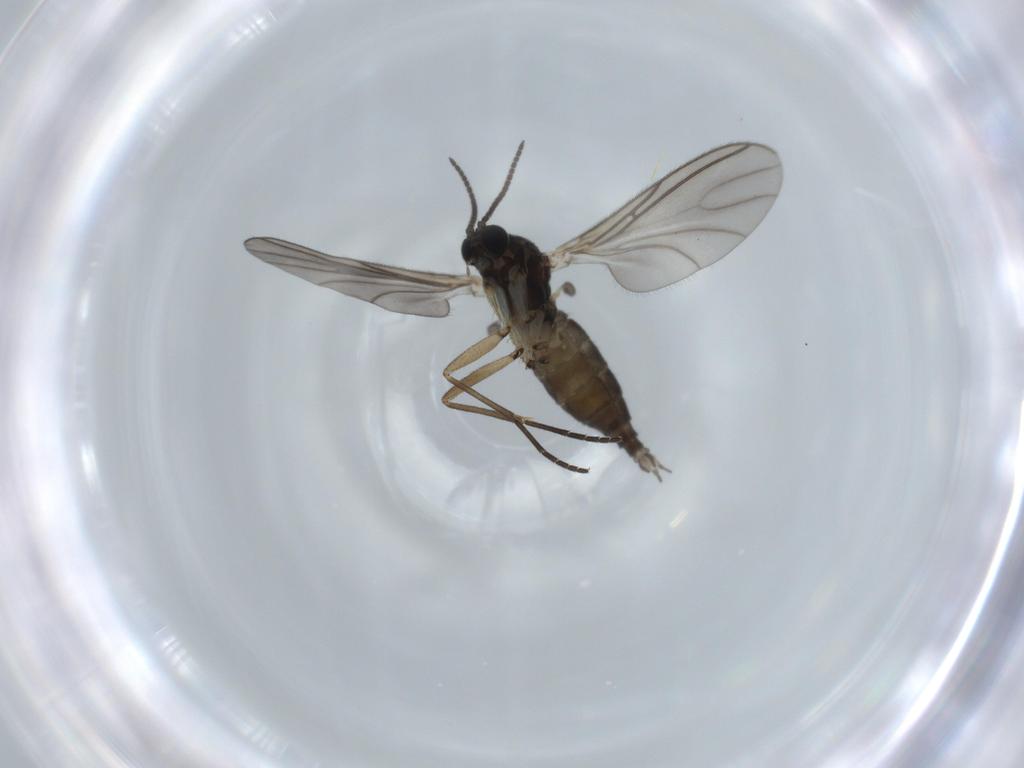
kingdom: Animalia
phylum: Arthropoda
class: Insecta
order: Diptera
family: Sciaridae
